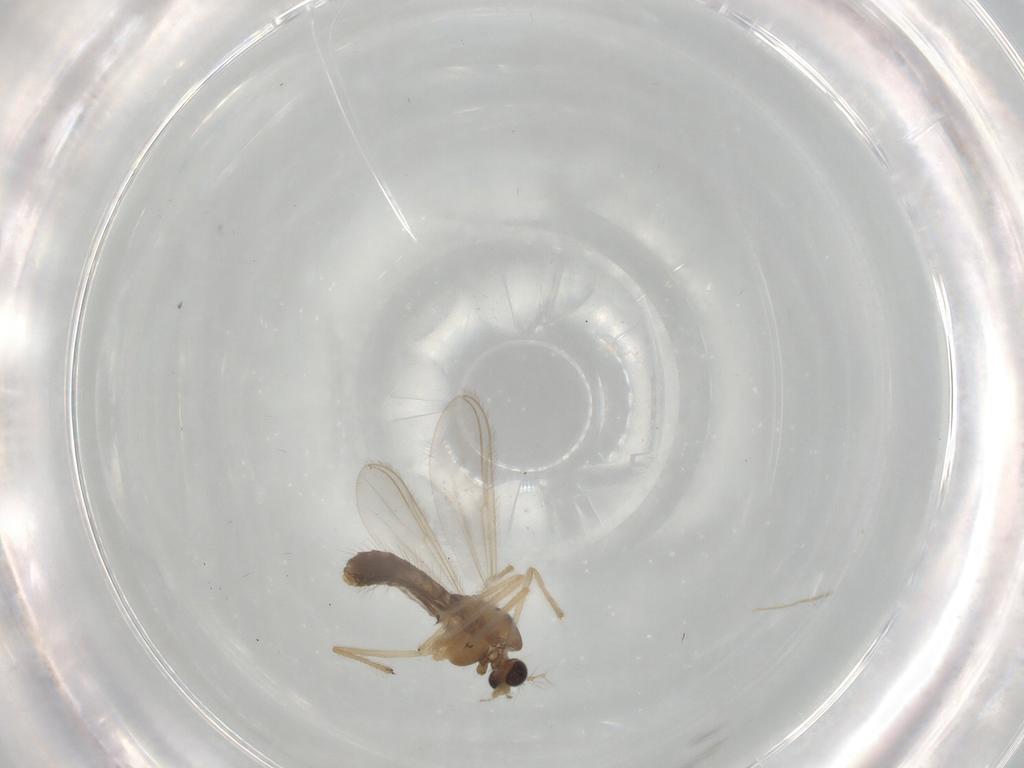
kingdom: Animalia
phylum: Arthropoda
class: Insecta
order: Diptera
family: Chironomidae
